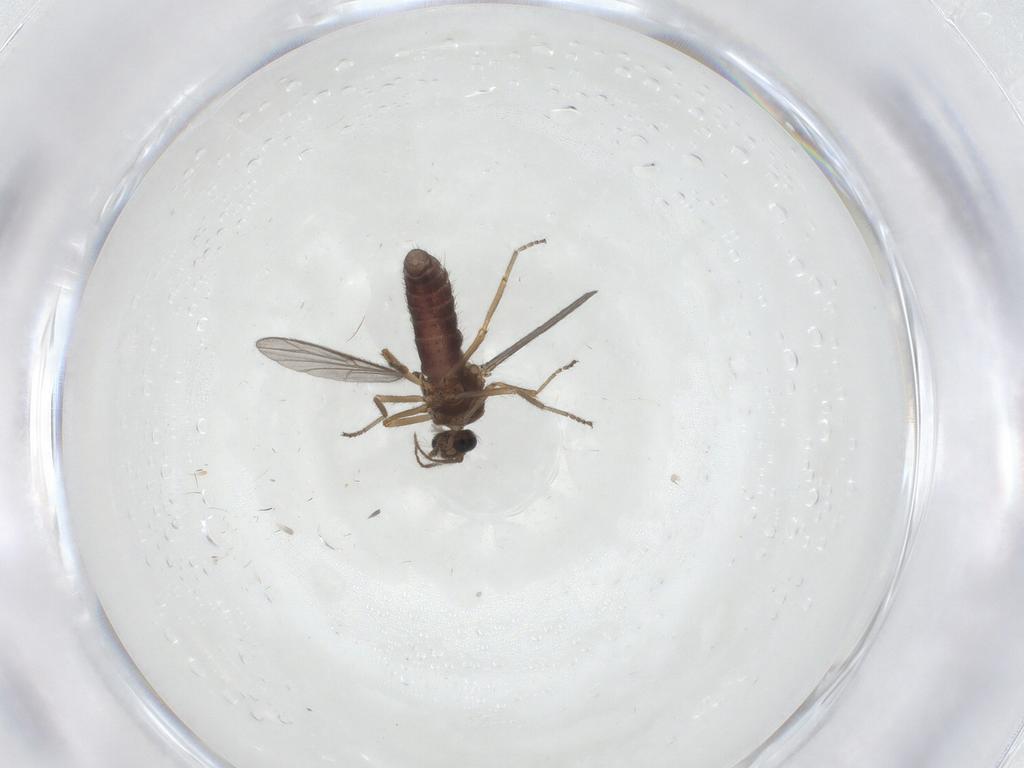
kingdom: Animalia
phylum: Arthropoda
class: Insecta
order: Diptera
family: Ceratopogonidae
